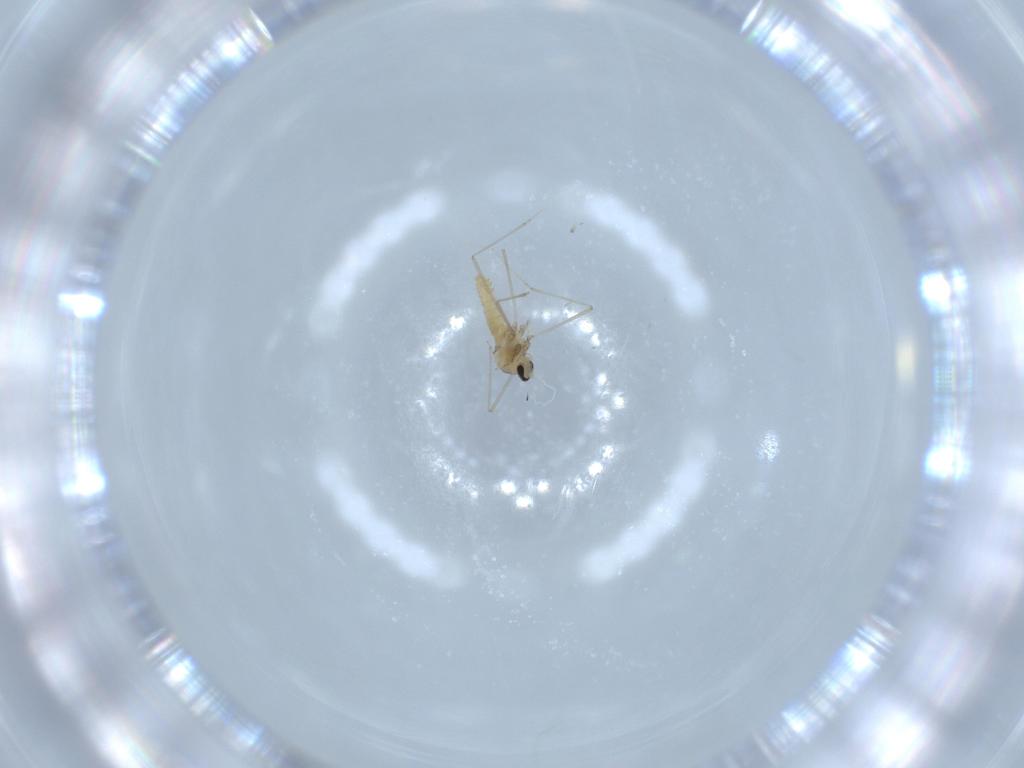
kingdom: Animalia
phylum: Arthropoda
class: Insecta
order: Diptera
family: Cecidomyiidae
